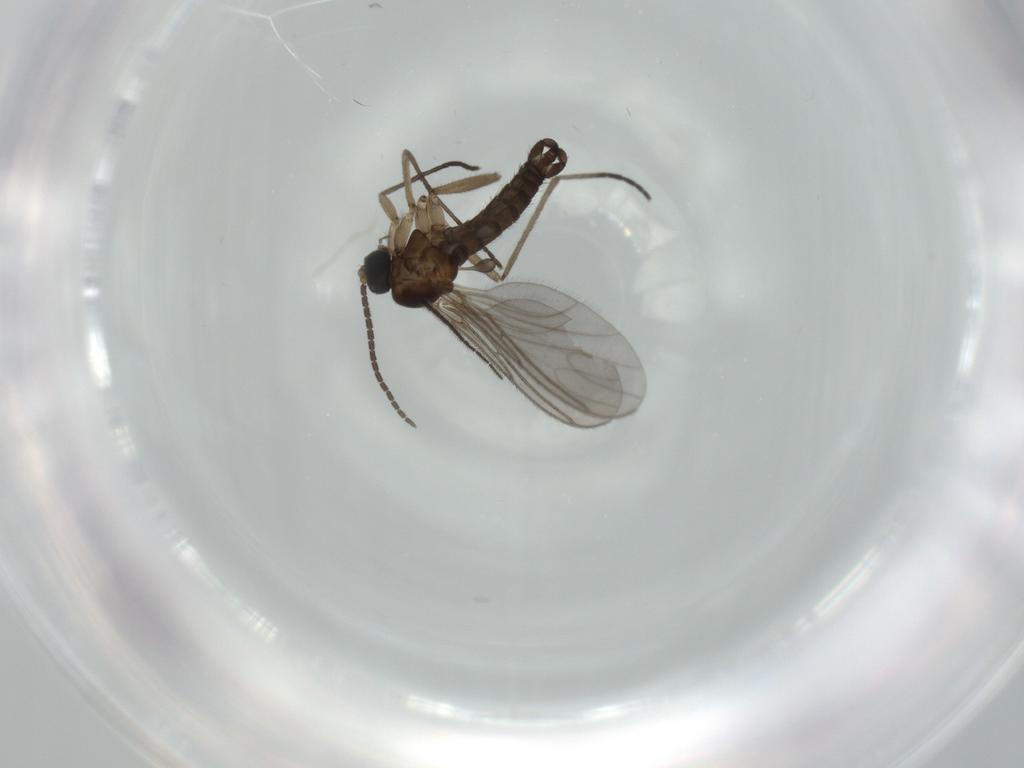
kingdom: Animalia
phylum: Arthropoda
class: Insecta
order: Diptera
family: Sciaridae
